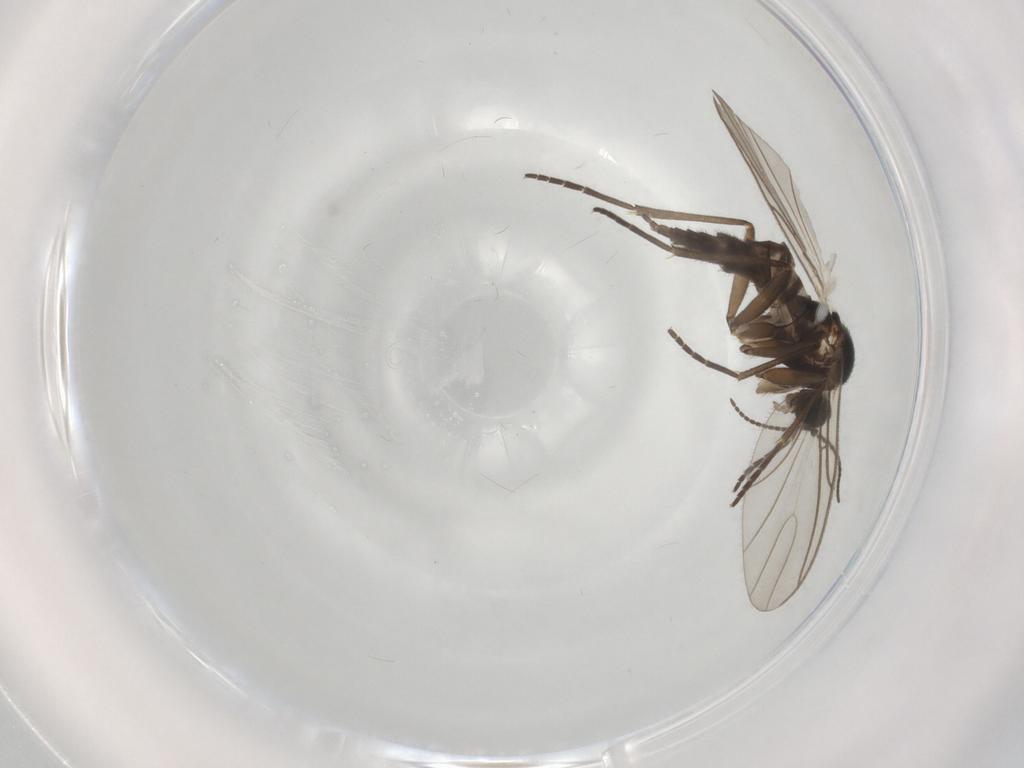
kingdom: Animalia
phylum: Arthropoda
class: Insecta
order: Diptera
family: Sciaridae
